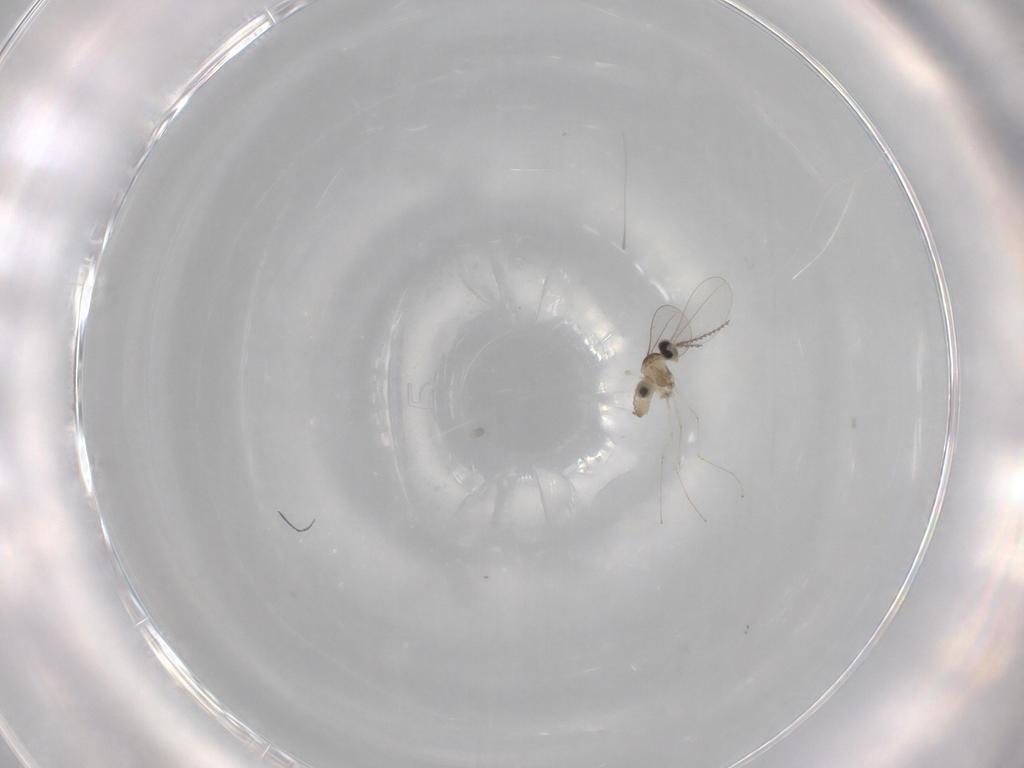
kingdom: Animalia
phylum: Arthropoda
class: Insecta
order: Diptera
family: Cecidomyiidae
